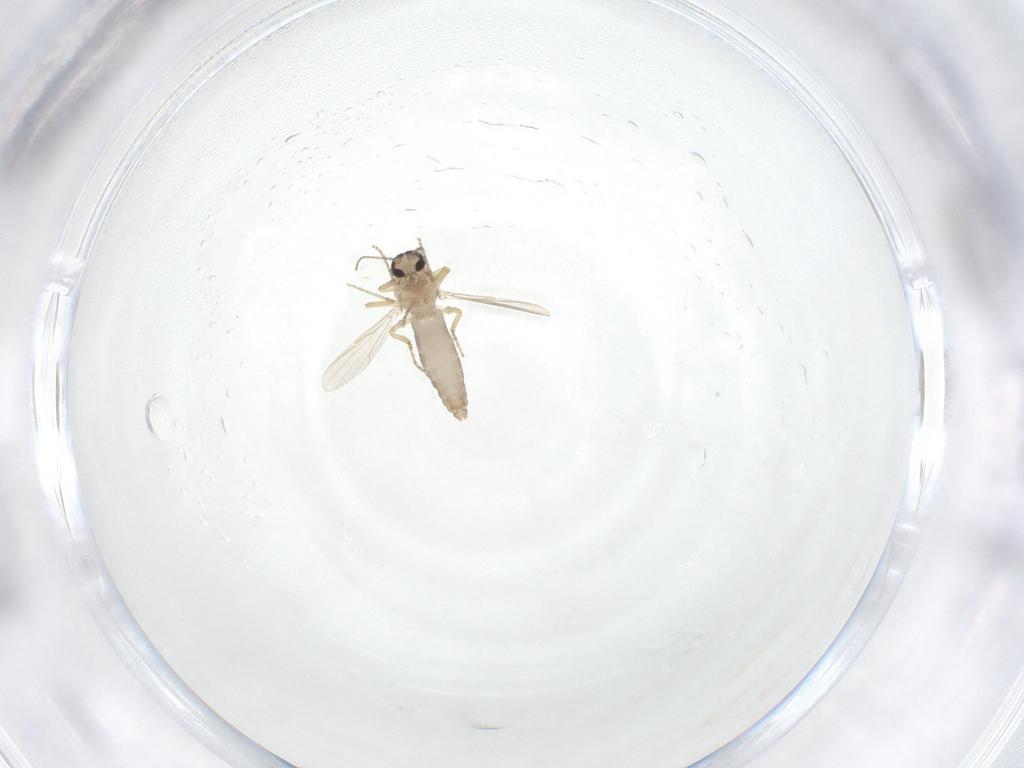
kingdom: Animalia
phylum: Arthropoda
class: Insecta
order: Diptera
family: Ceratopogonidae
